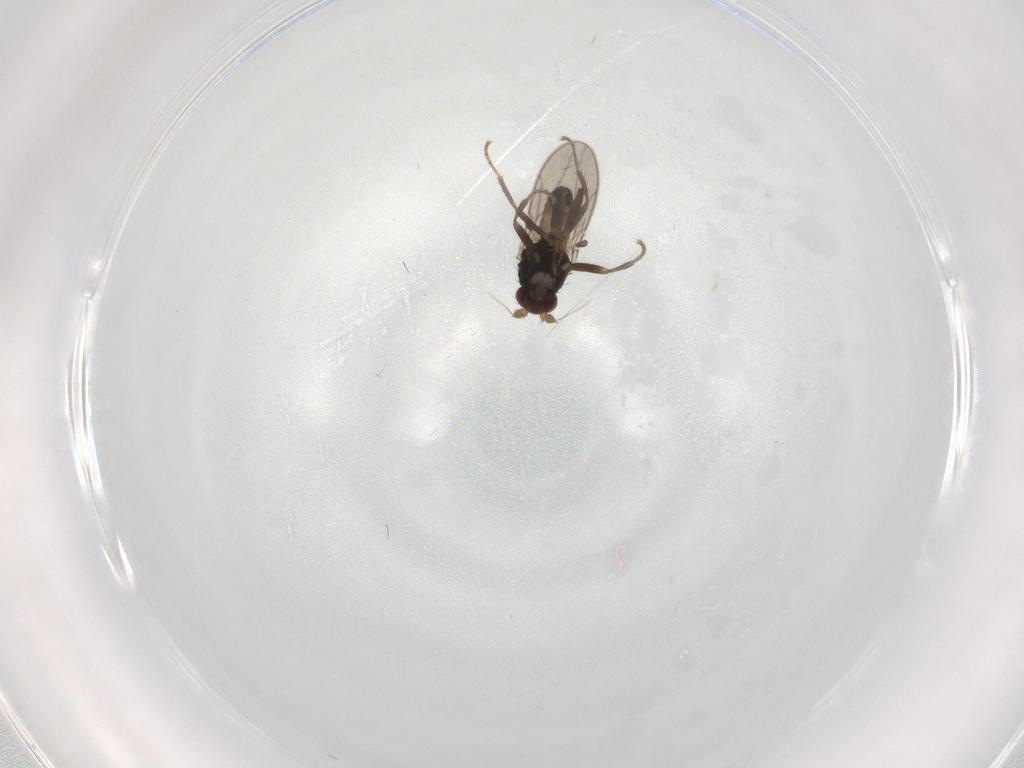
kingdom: Animalia
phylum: Arthropoda
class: Insecta
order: Diptera
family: Sphaeroceridae
